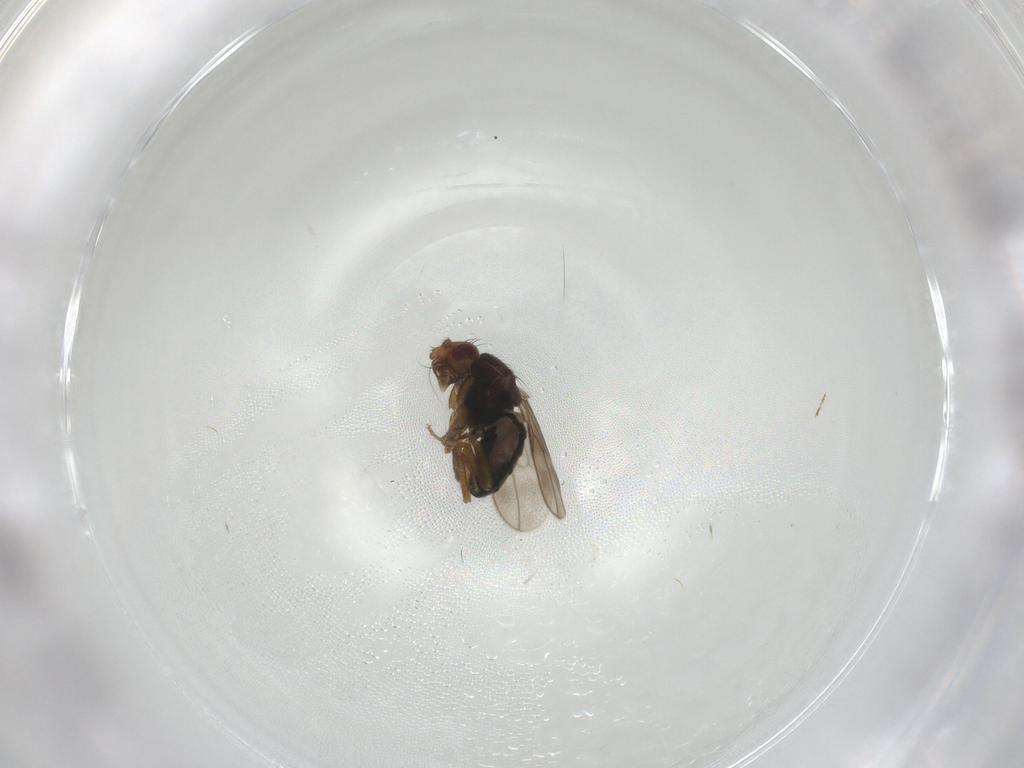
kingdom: Animalia
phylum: Arthropoda
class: Insecta
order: Diptera
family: Sphaeroceridae
